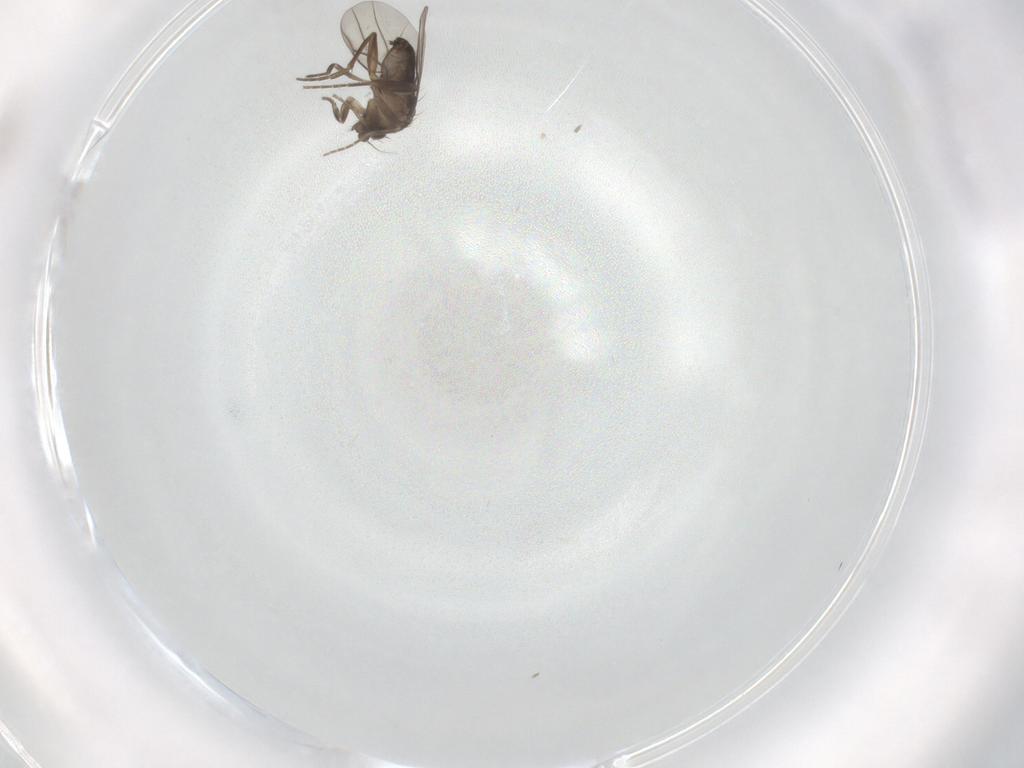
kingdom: Animalia
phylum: Arthropoda
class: Insecta
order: Diptera
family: Phoridae
